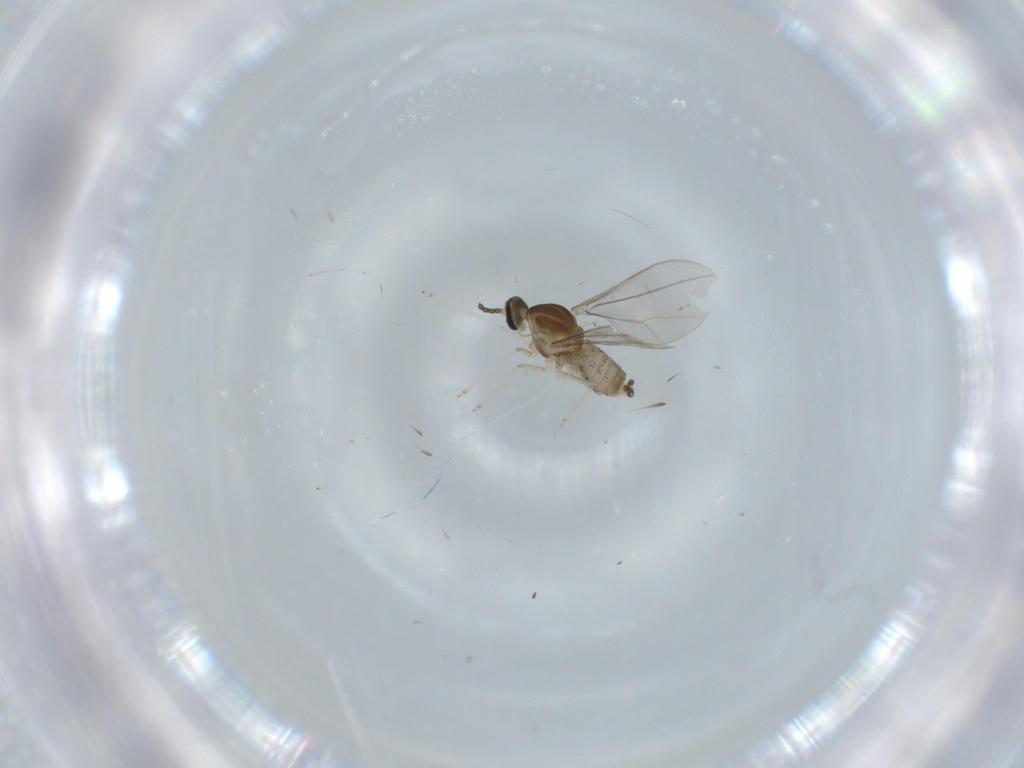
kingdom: Animalia
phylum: Arthropoda
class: Insecta
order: Diptera
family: Cecidomyiidae
